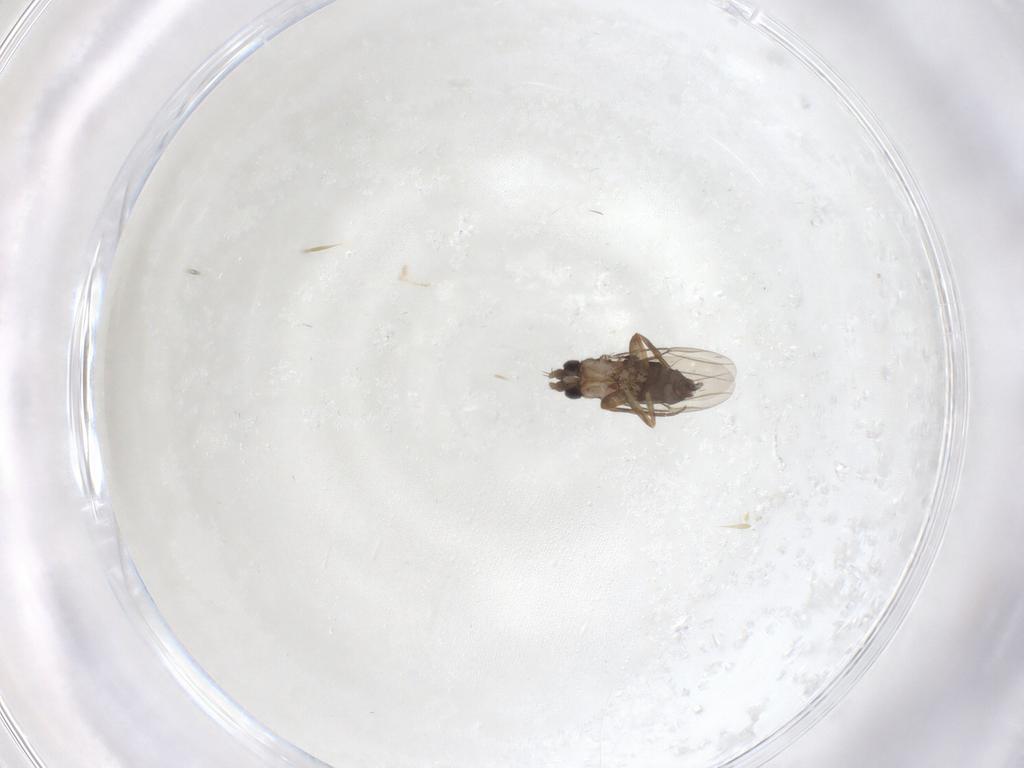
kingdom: Animalia
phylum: Arthropoda
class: Insecta
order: Diptera
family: Phoridae
